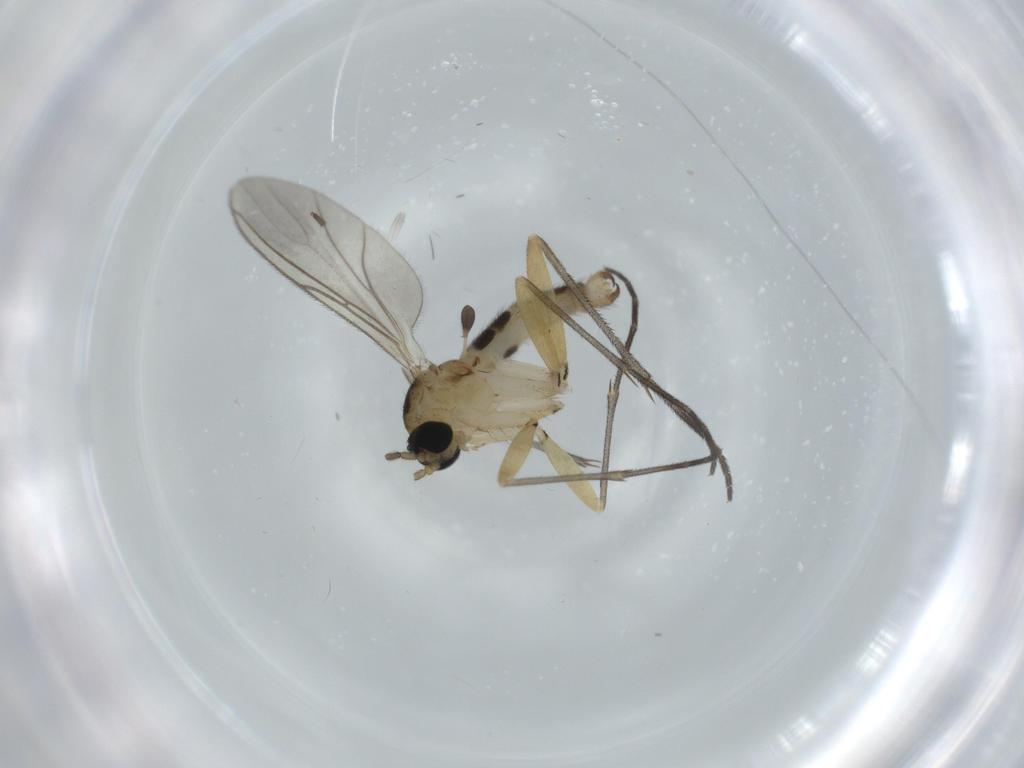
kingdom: Animalia
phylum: Arthropoda
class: Insecta
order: Diptera
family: Sciaridae
